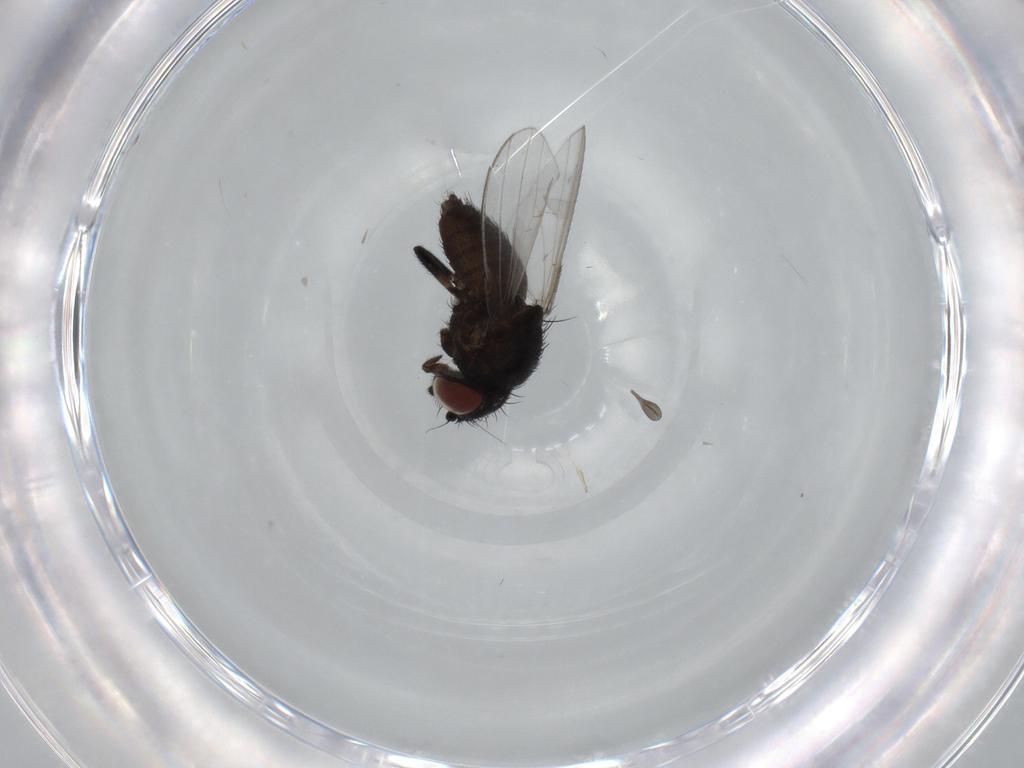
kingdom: Animalia
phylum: Arthropoda
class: Insecta
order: Diptera
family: Milichiidae
